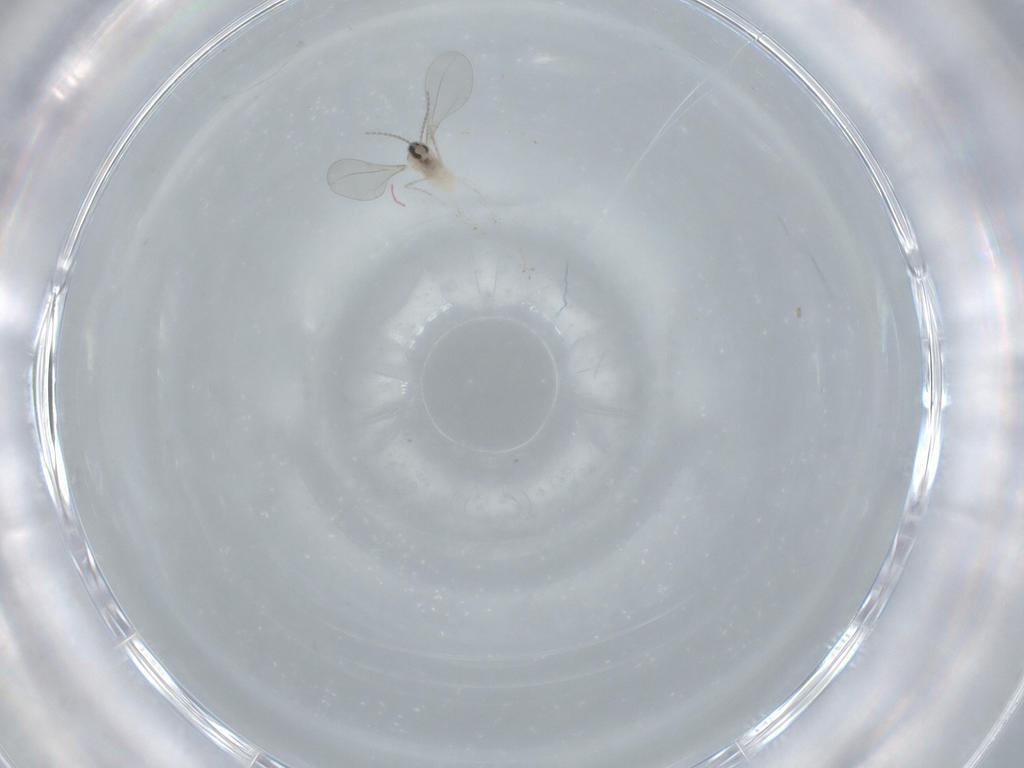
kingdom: Animalia
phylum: Arthropoda
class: Insecta
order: Diptera
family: Cecidomyiidae
